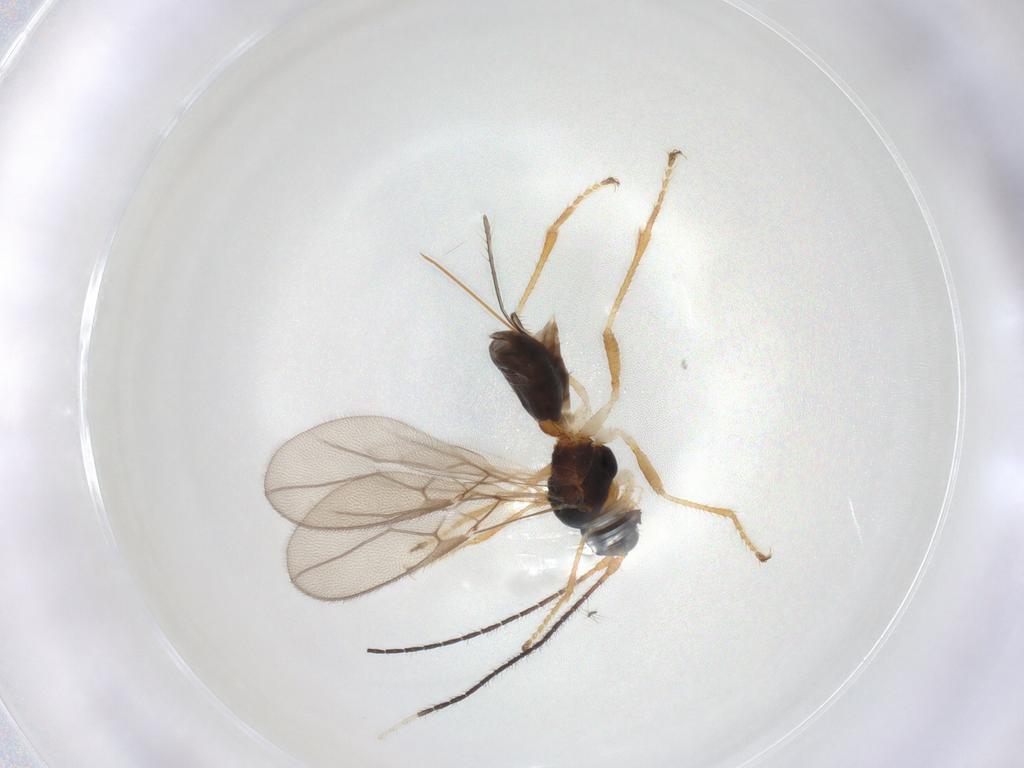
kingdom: Animalia
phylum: Arthropoda
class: Insecta
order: Hymenoptera
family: Braconidae
